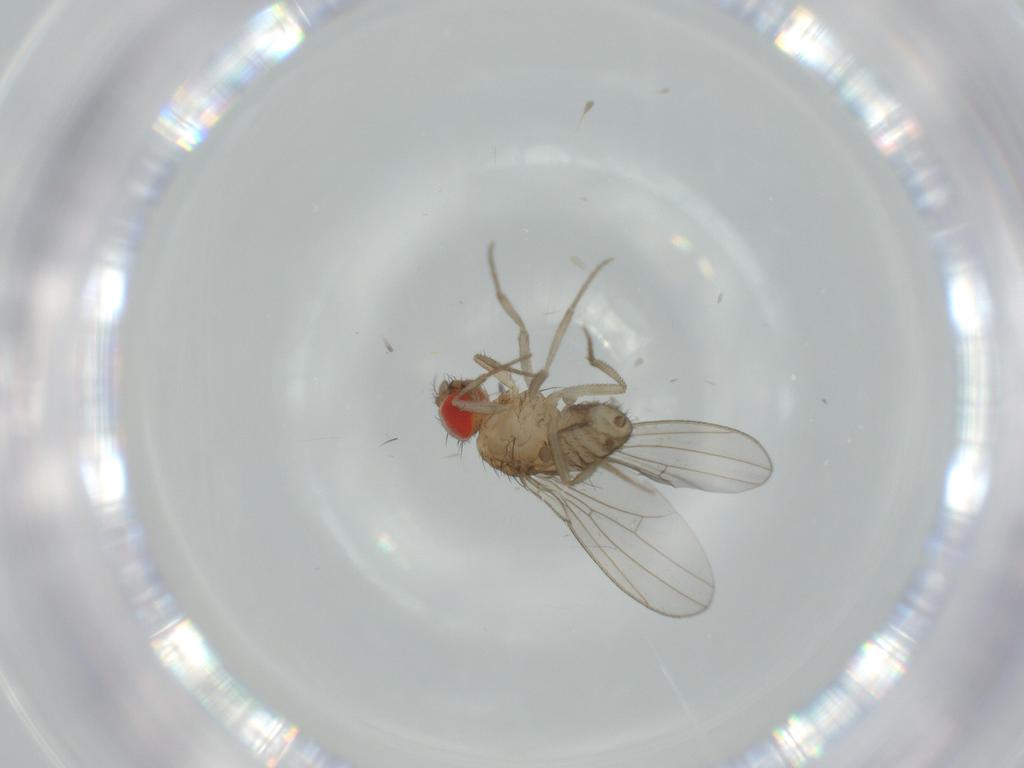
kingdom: Animalia
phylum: Arthropoda
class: Insecta
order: Diptera
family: Drosophilidae
